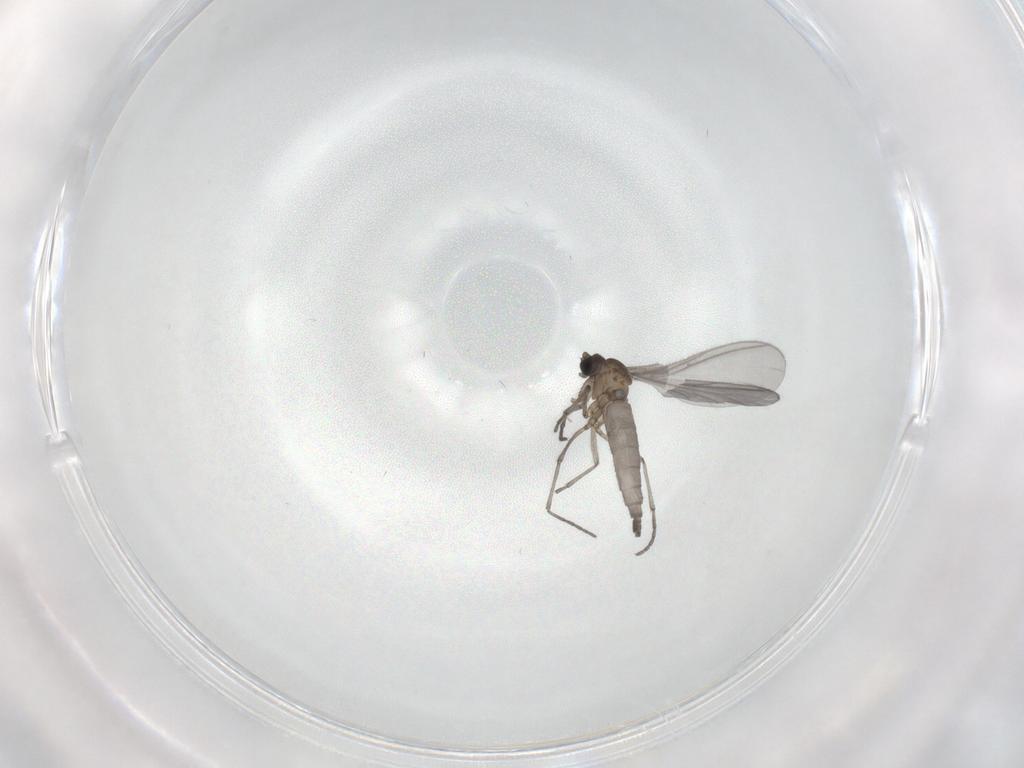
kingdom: Animalia
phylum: Arthropoda
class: Insecta
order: Diptera
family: Sciaridae
